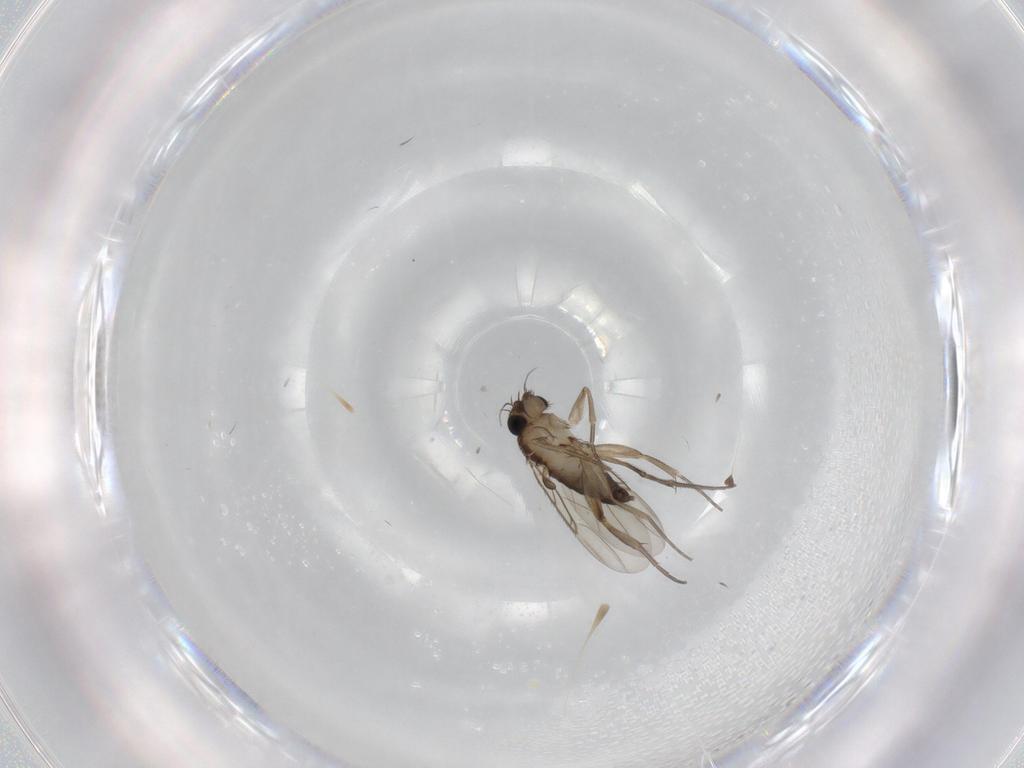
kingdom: Animalia
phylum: Arthropoda
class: Insecta
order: Diptera
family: Phoridae
